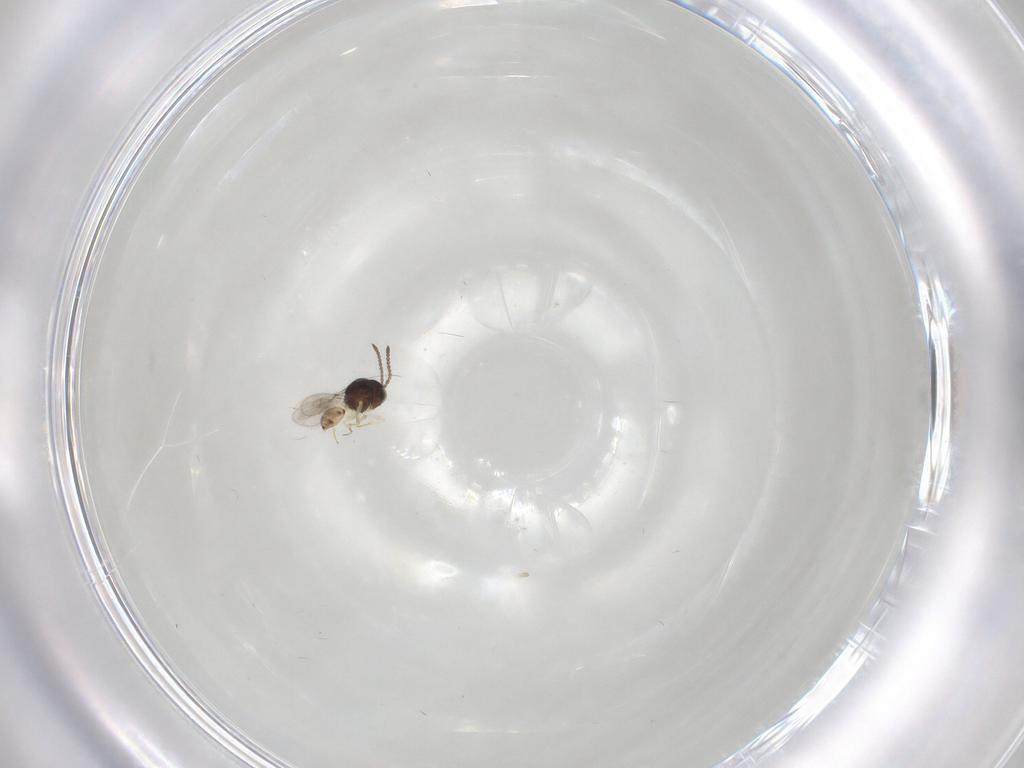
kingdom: Animalia
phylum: Arthropoda
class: Insecta
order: Hymenoptera
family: Scelionidae
